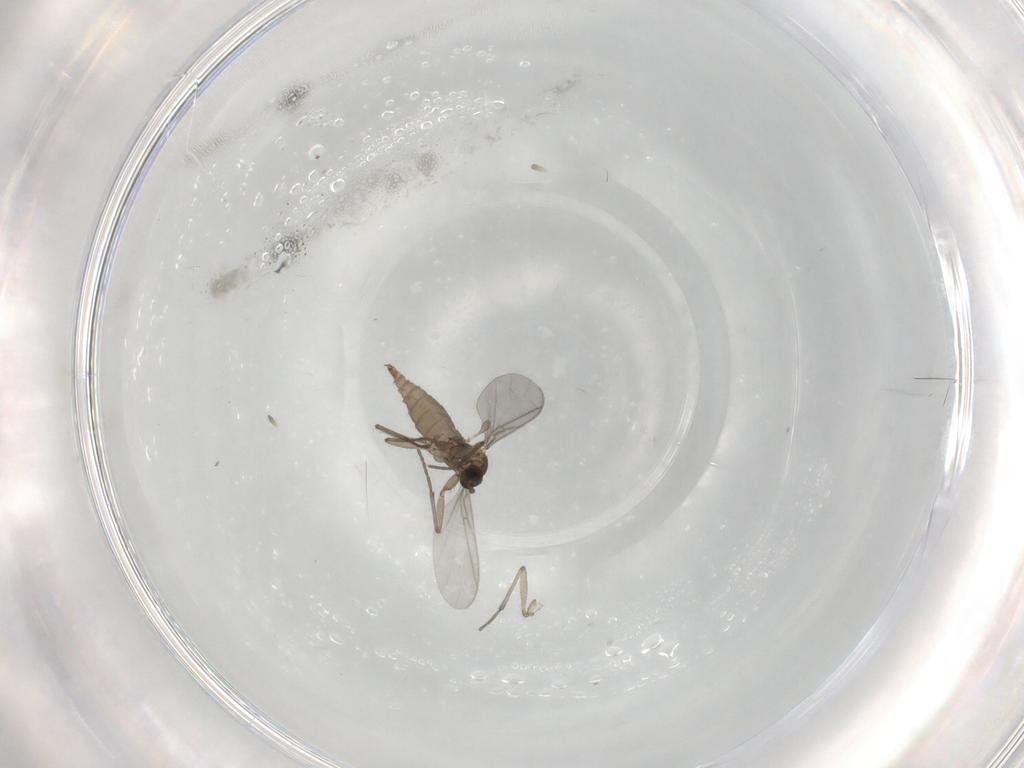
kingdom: Animalia
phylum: Arthropoda
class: Insecta
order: Diptera
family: Sciaridae
